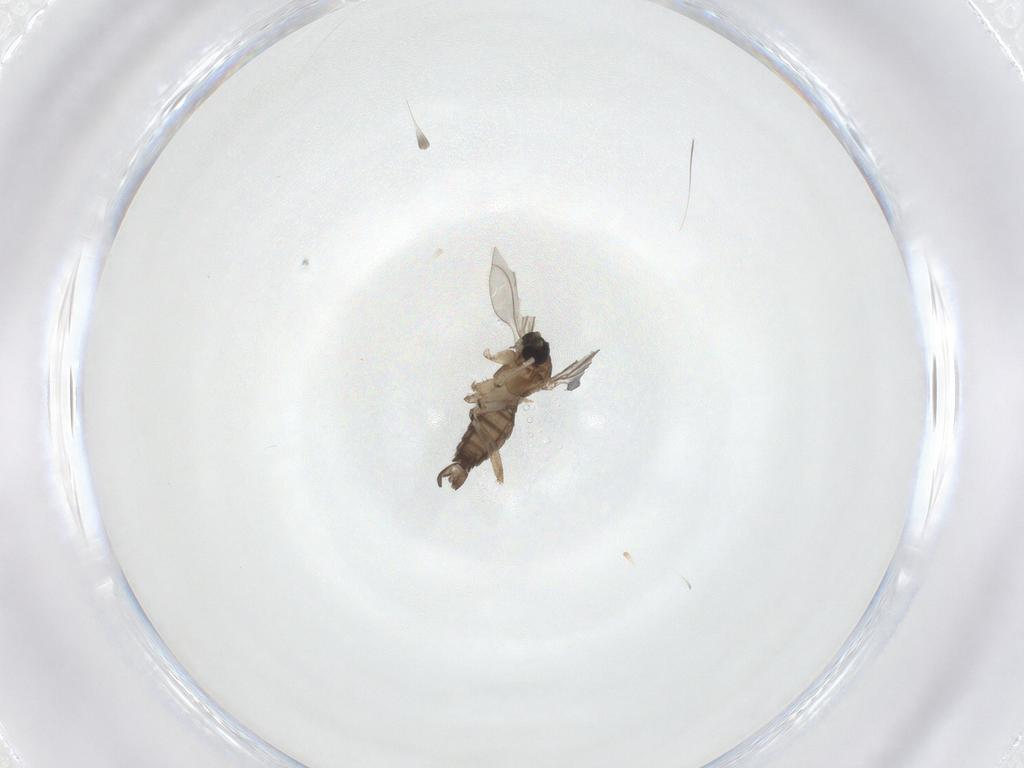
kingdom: Animalia
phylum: Arthropoda
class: Insecta
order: Diptera
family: Sciaridae
